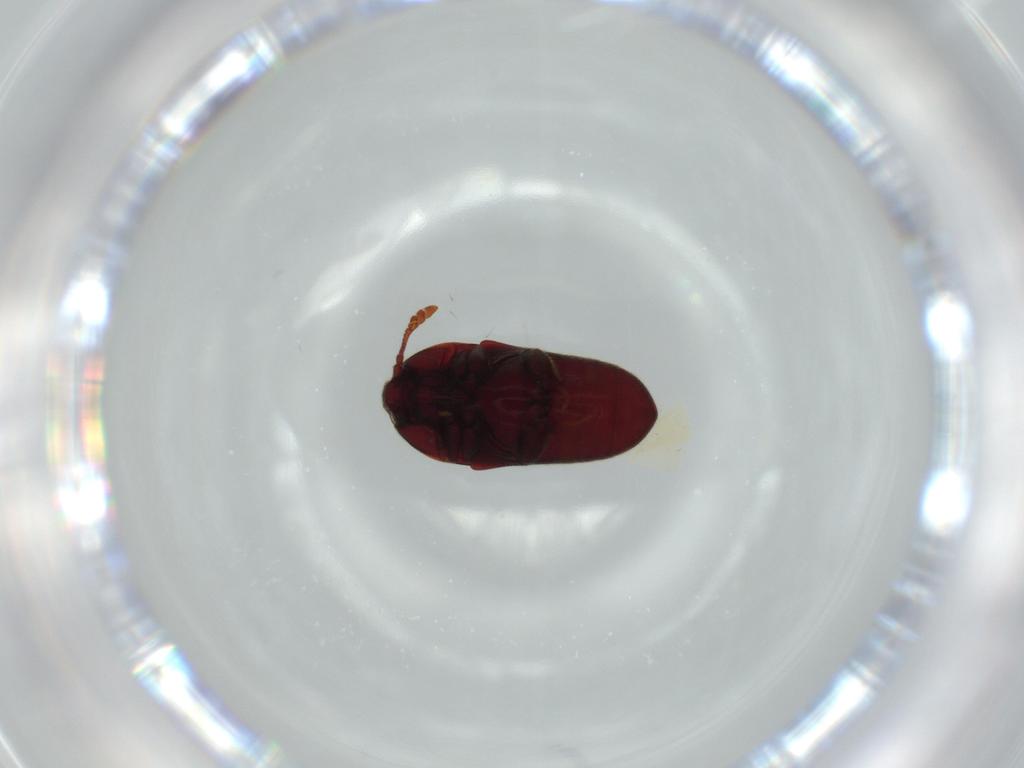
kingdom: Animalia
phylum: Arthropoda
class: Insecta
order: Coleoptera
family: Throscidae
